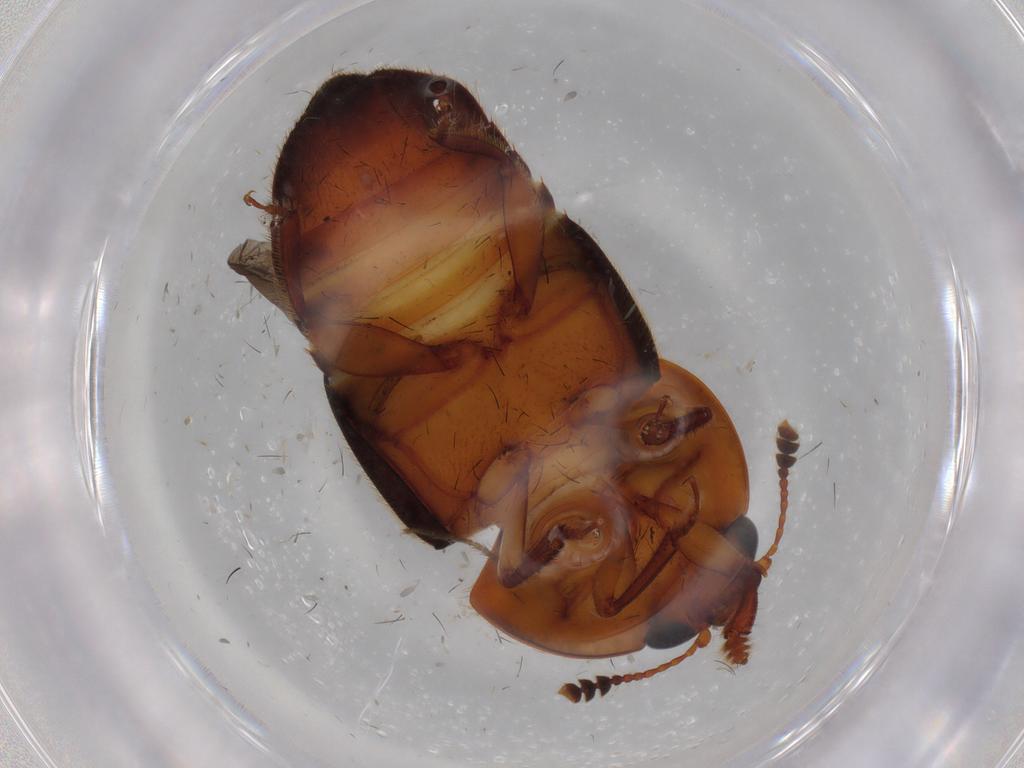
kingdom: Animalia
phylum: Arthropoda
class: Insecta
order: Coleoptera
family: Nitidulidae
